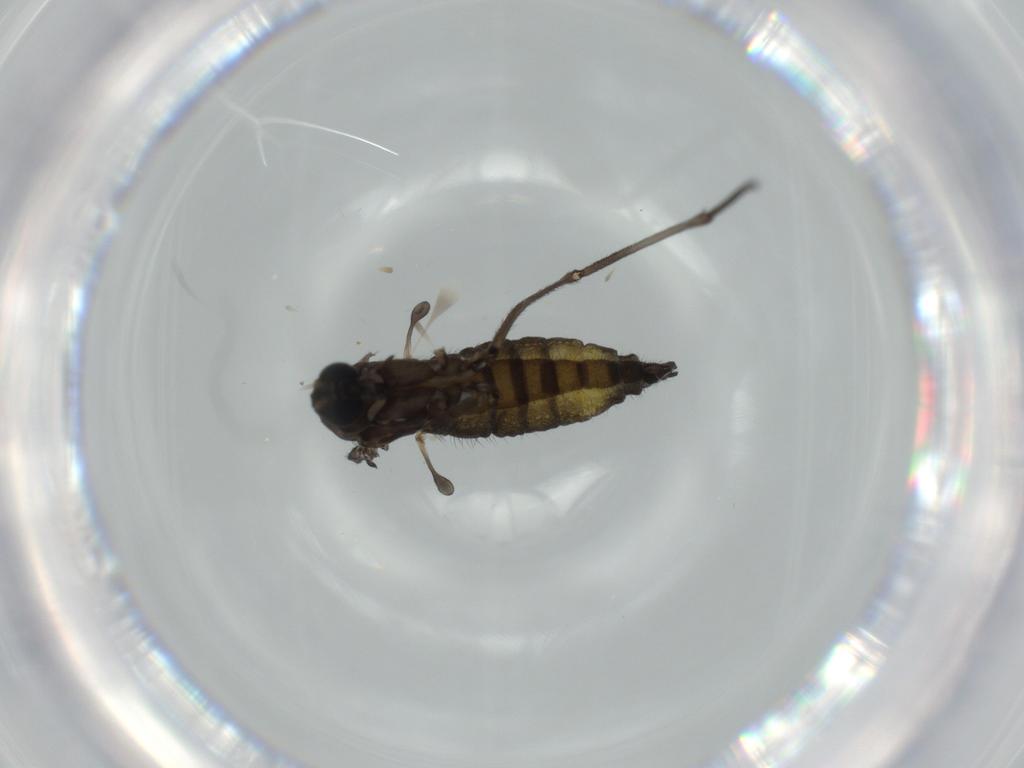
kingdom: Animalia
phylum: Arthropoda
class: Insecta
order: Diptera
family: Sciaridae
